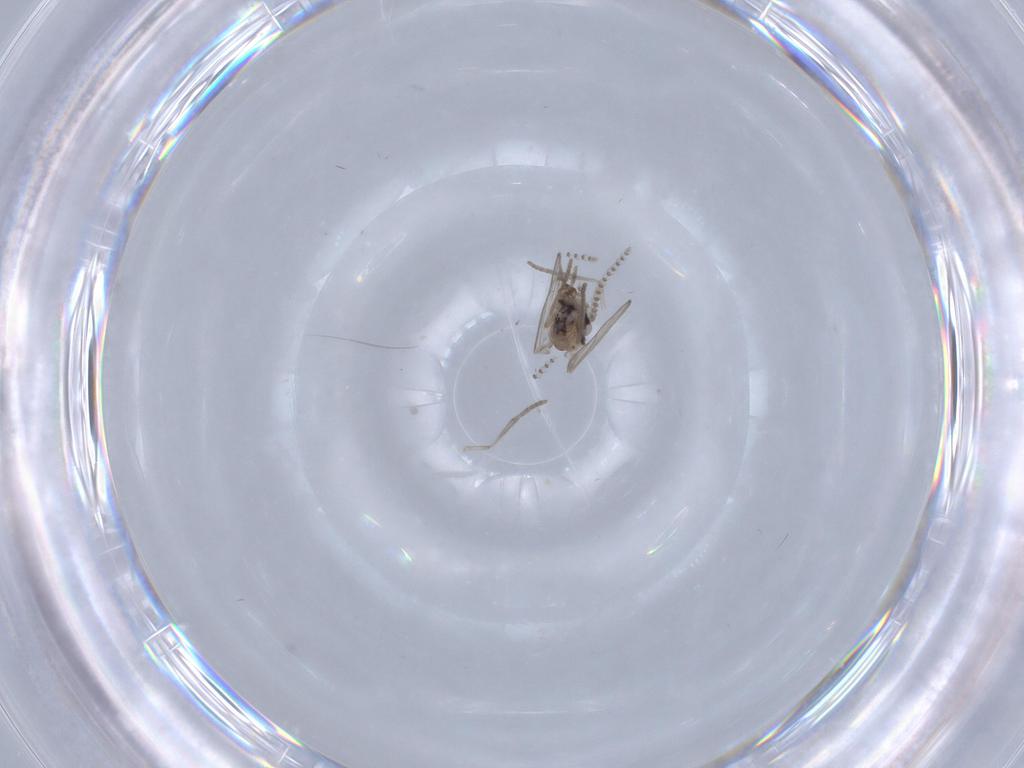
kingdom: Animalia
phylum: Arthropoda
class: Insecta
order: Diptera
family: Psychodidae
